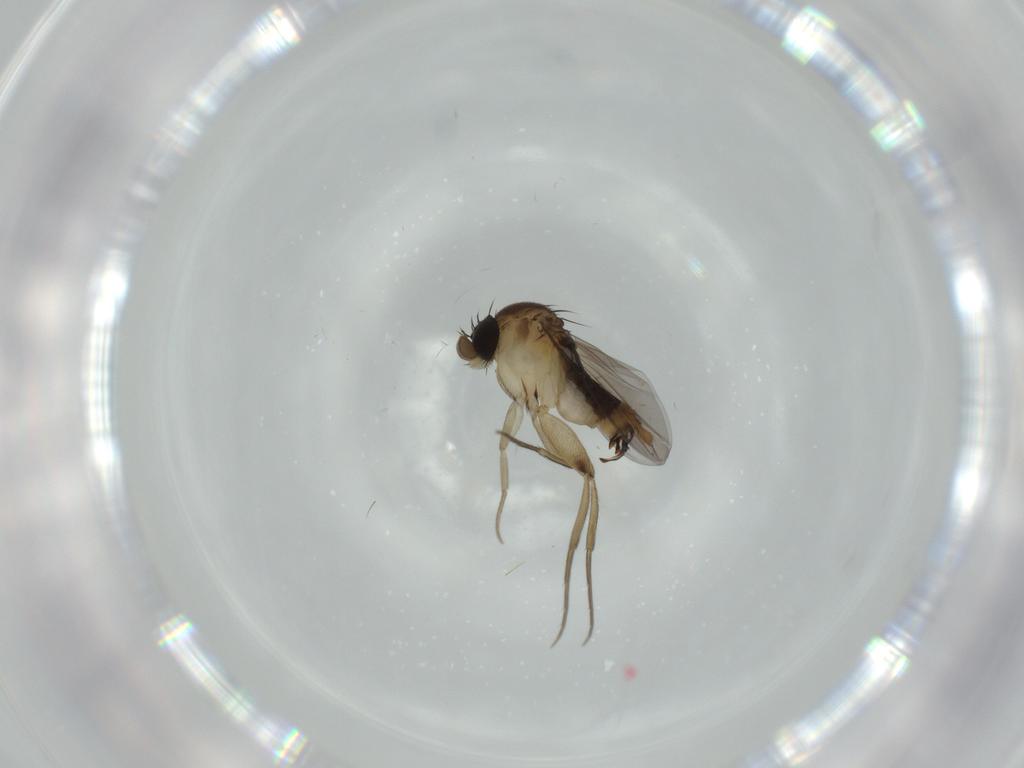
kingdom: Animalia
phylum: Arthropoda
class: Insecta
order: Diptera
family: Phoridae
